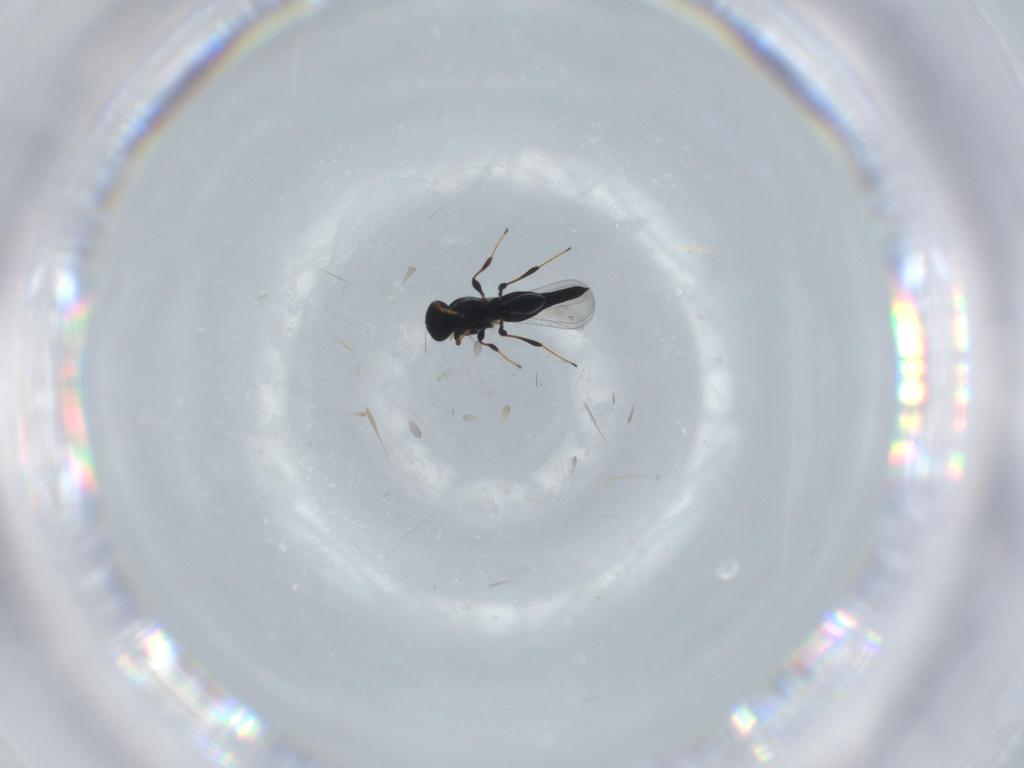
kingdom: Animalia
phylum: Arthropoda
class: Insecta
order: Hymenoptera
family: Platygastridae
